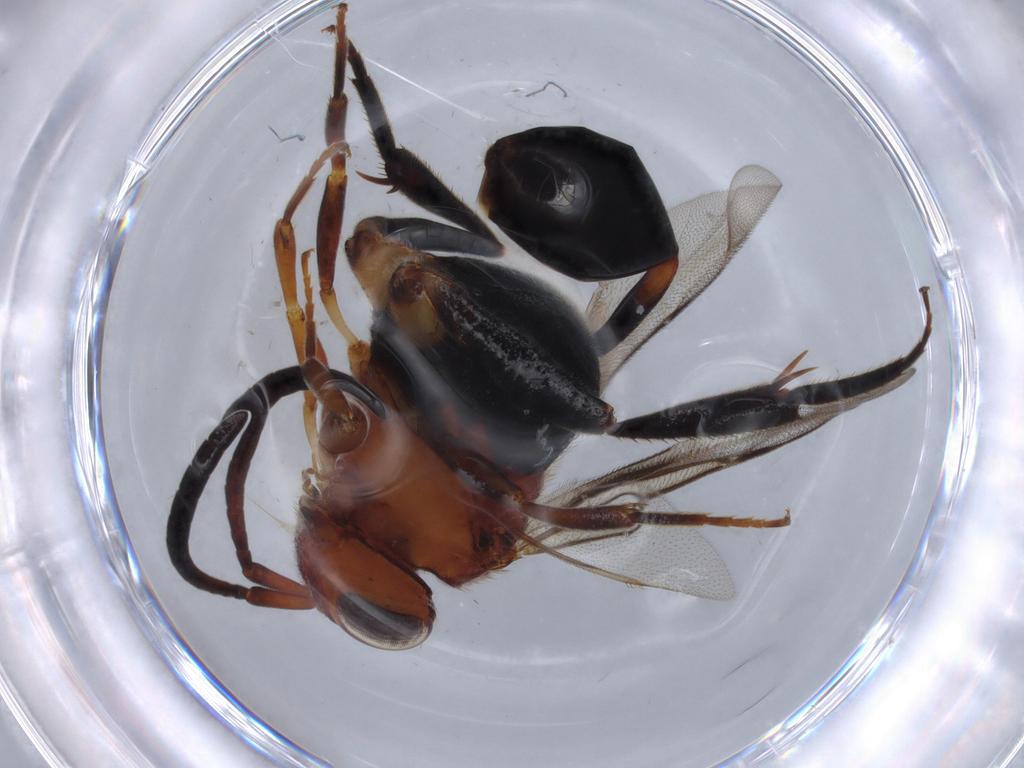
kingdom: Animalia
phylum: Arthropoda
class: Insecta
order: Hymenoptera
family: Evaniidae
